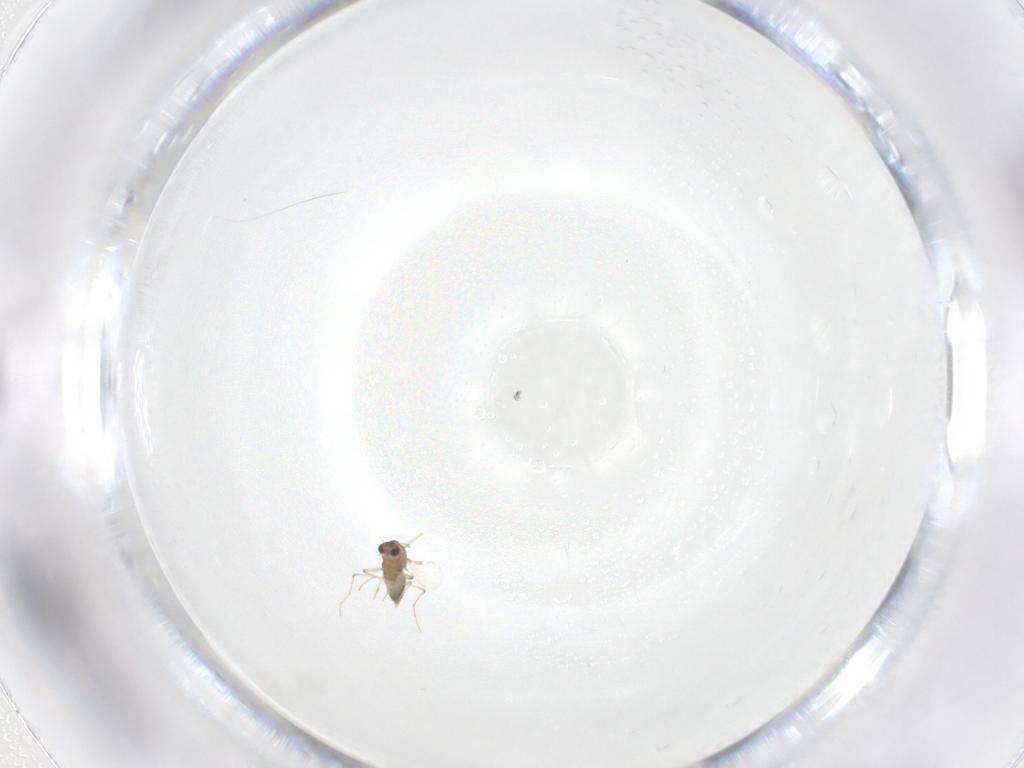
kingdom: Animalia
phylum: Arthropoda
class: Insecta
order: Diptera
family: Chironomidae
